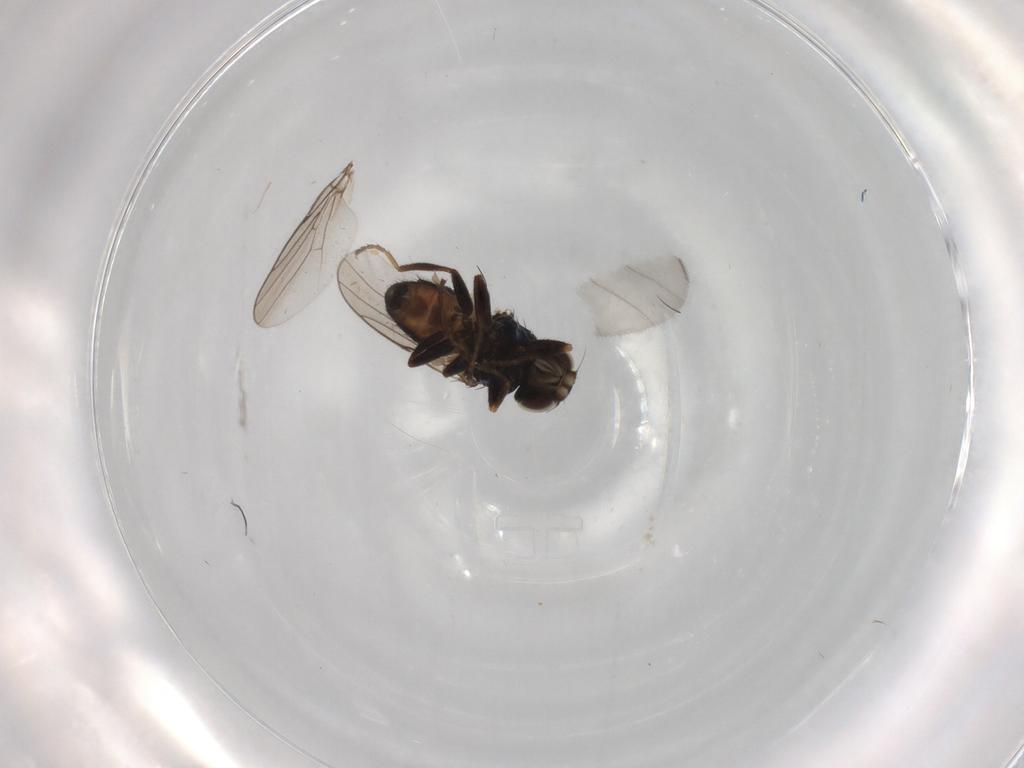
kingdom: Animalia
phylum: Arthropoda
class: Insecta
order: Diptera
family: Chloropidae
